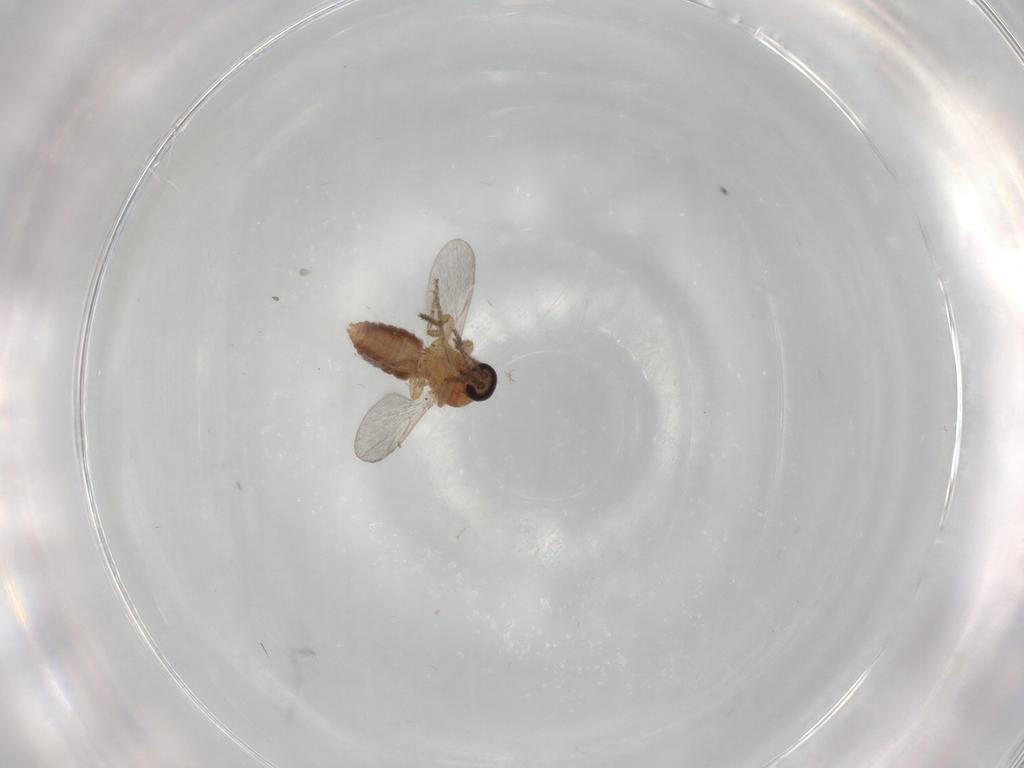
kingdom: Animalia
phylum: Arthropoda
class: Insecta
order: Diptera
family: Ceratopogonidae
